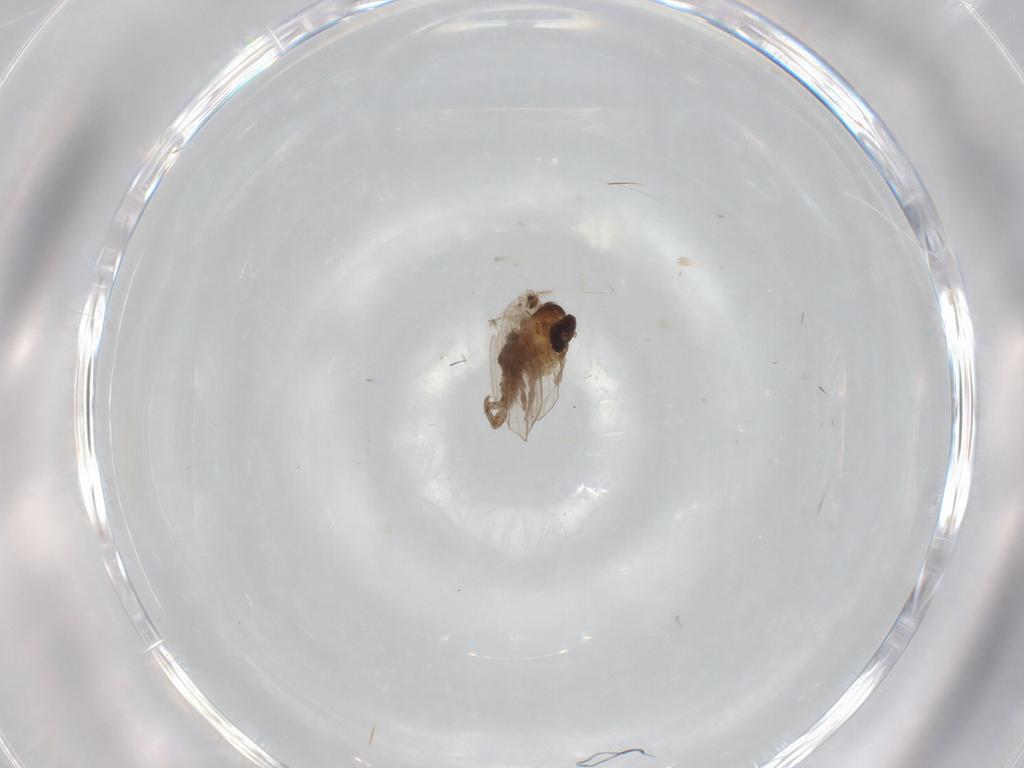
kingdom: Animalia
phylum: Arthropoda
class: Insecta
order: Diptera
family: Psychodidae
